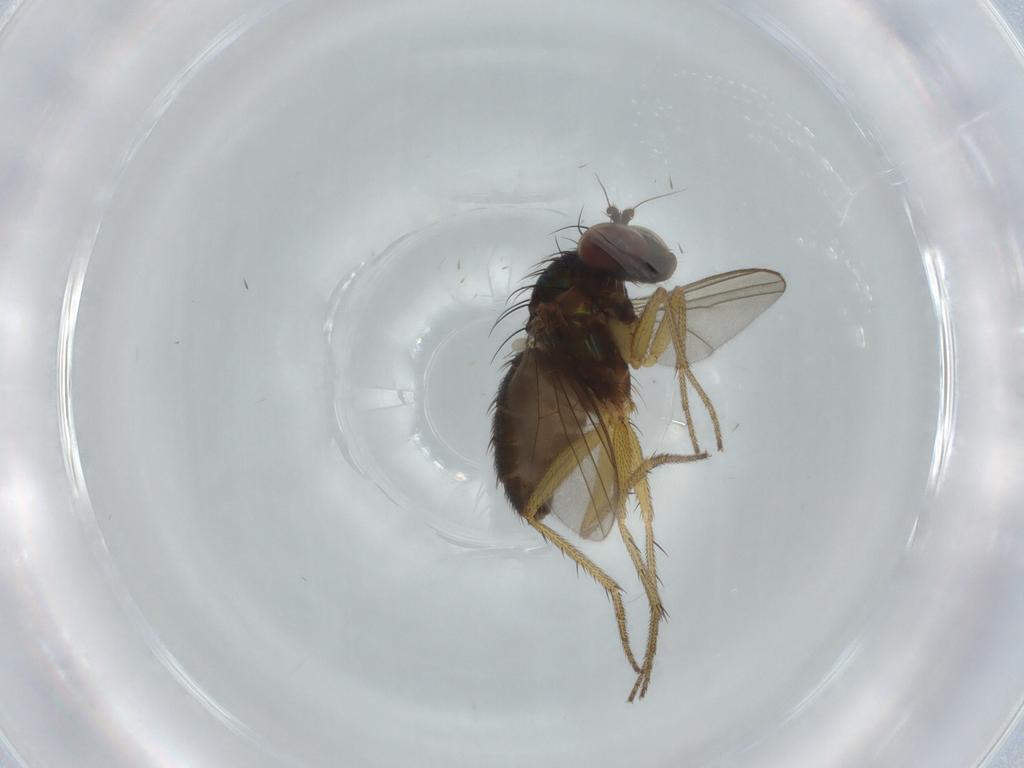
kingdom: Animalia
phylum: Arthropoda
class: Insecta
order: Diptera
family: Dolichopodidae
